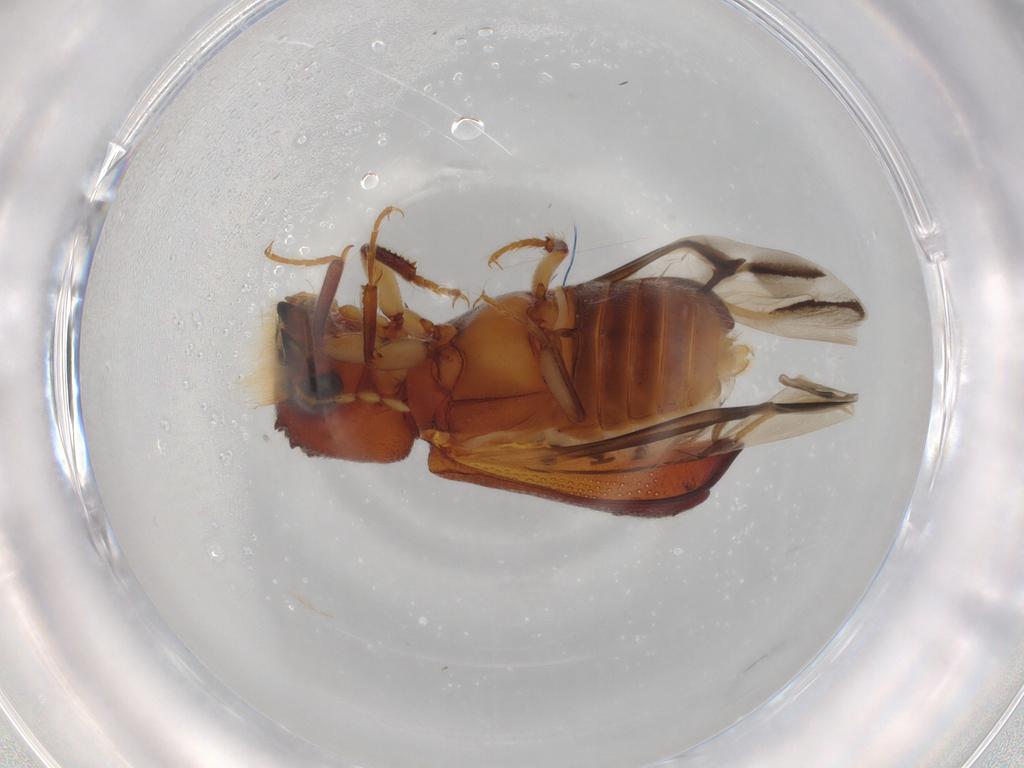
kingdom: Animalia
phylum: Arthropoda
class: Insecta
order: Coleoptera
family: Bostrichidae
